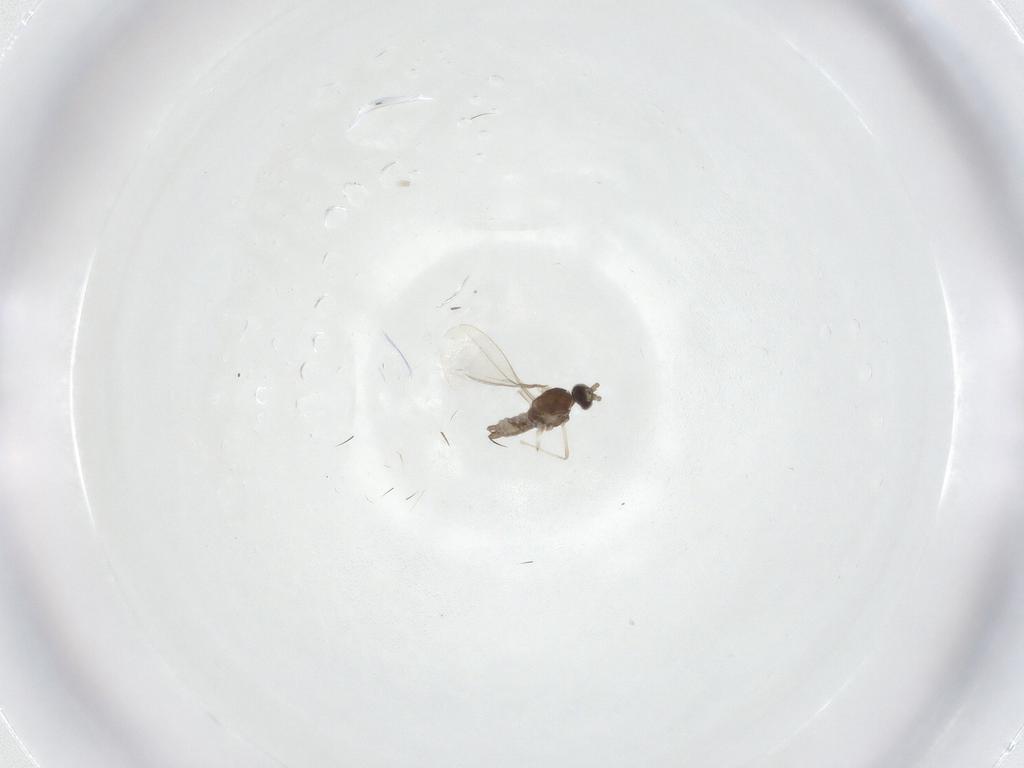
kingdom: Animalia
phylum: Arthropoda
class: Insecta
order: Diptera
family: Cecidomyiidae
